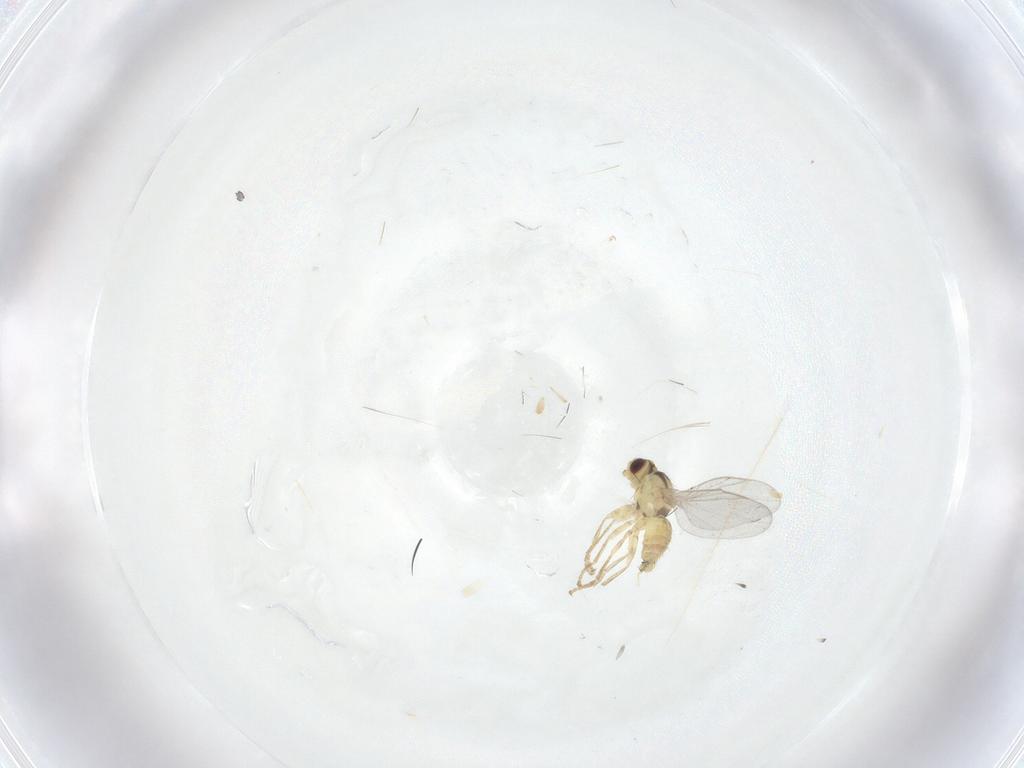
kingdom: Animalia
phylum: Arthropoda
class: Insecta
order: Diptera
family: Agromyzidae
